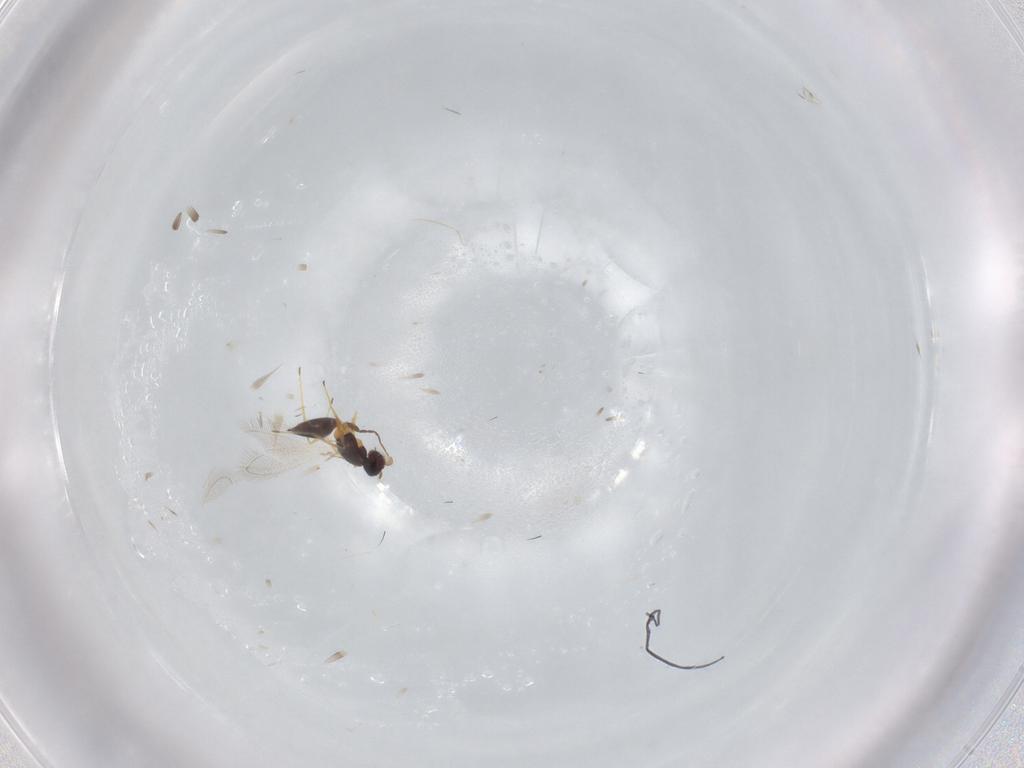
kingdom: Animalia
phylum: Arthropoda
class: Insecta
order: Hymenoptera
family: Mymaridae
